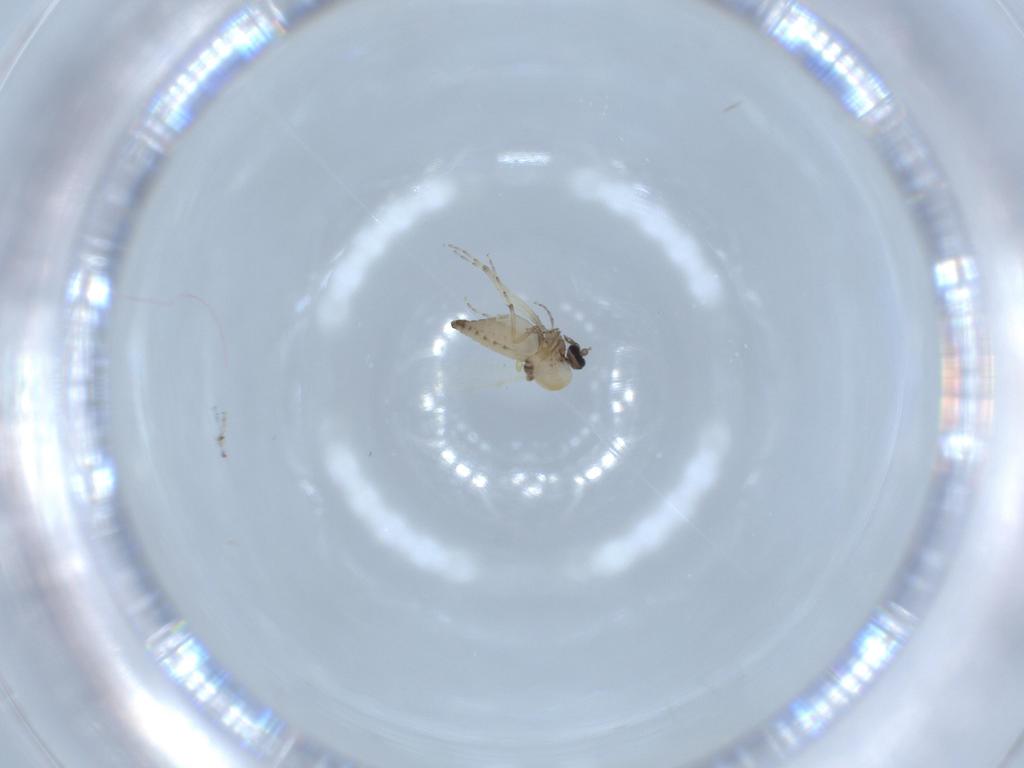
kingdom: Animalia
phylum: Arthropoda
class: Insecta
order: Diptera
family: Ceratopogonidae
